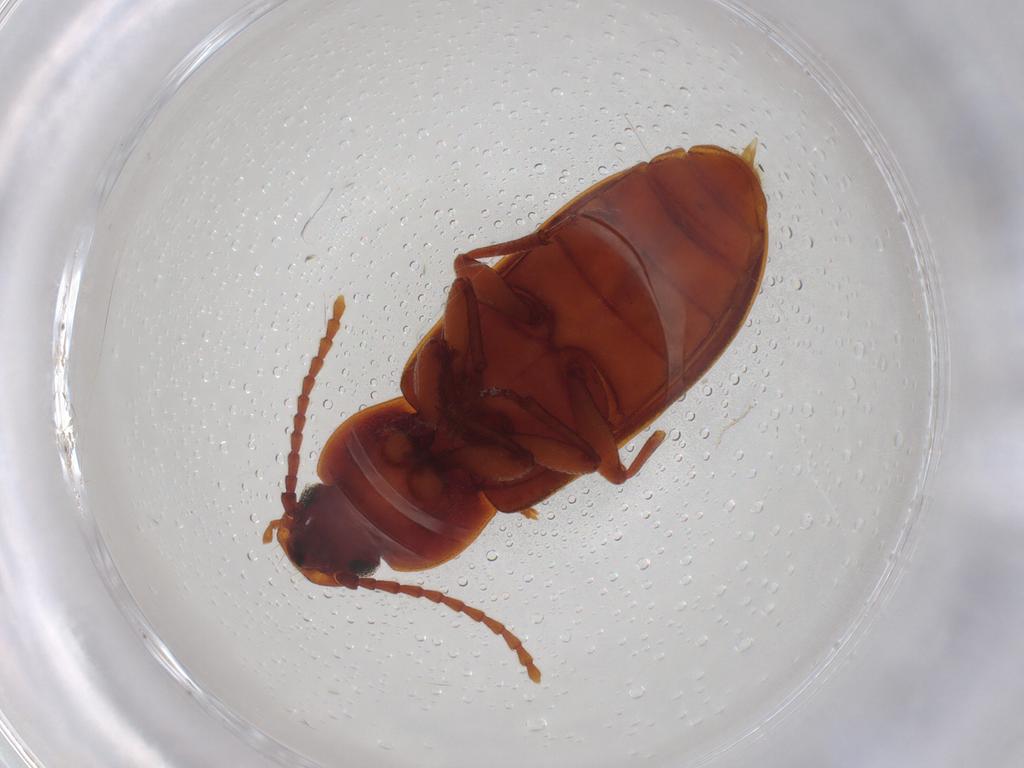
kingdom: Animalia
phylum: Arthropoda
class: Insecta
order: Coleoptera
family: Tenebrionidae
